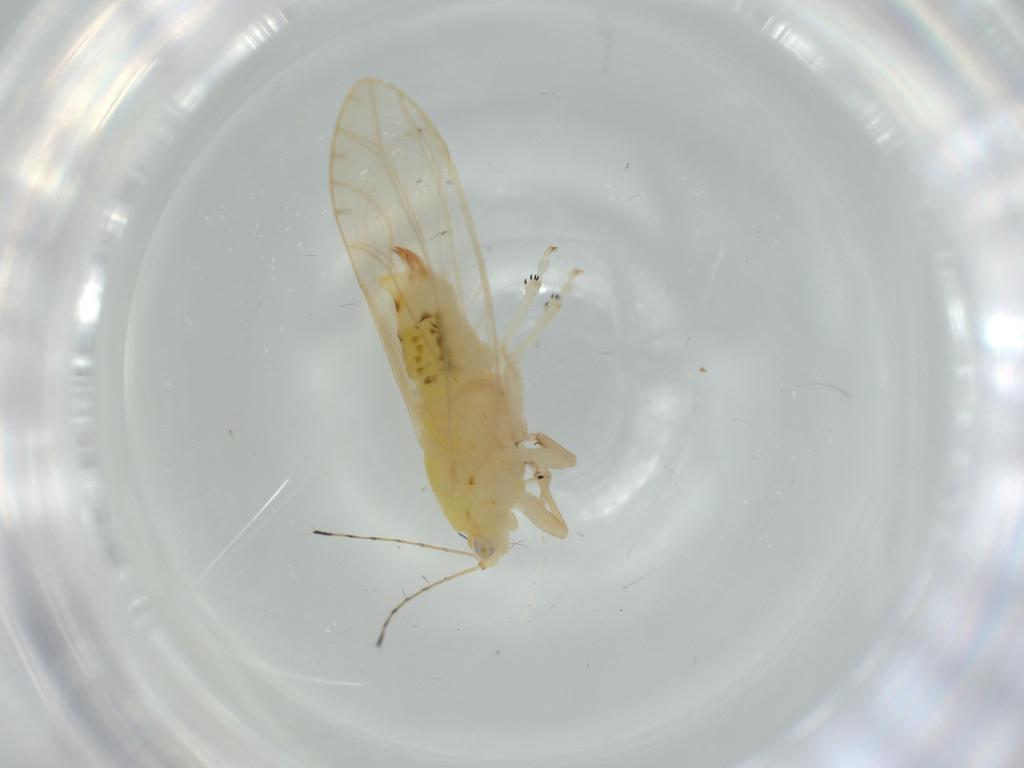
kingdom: Animalia
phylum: Arthropoda
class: Insecta
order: Hemiptera
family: Triozidae
